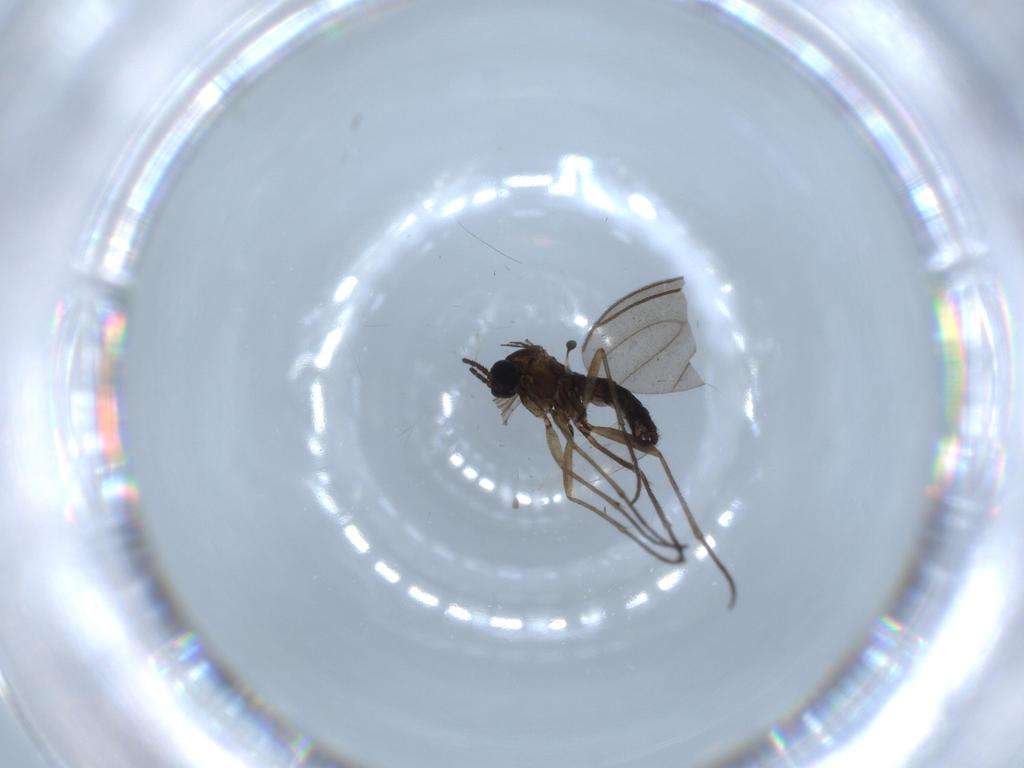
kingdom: Animalia
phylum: Arthropoda
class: Insecta
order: Diptera
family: Sciaridae
